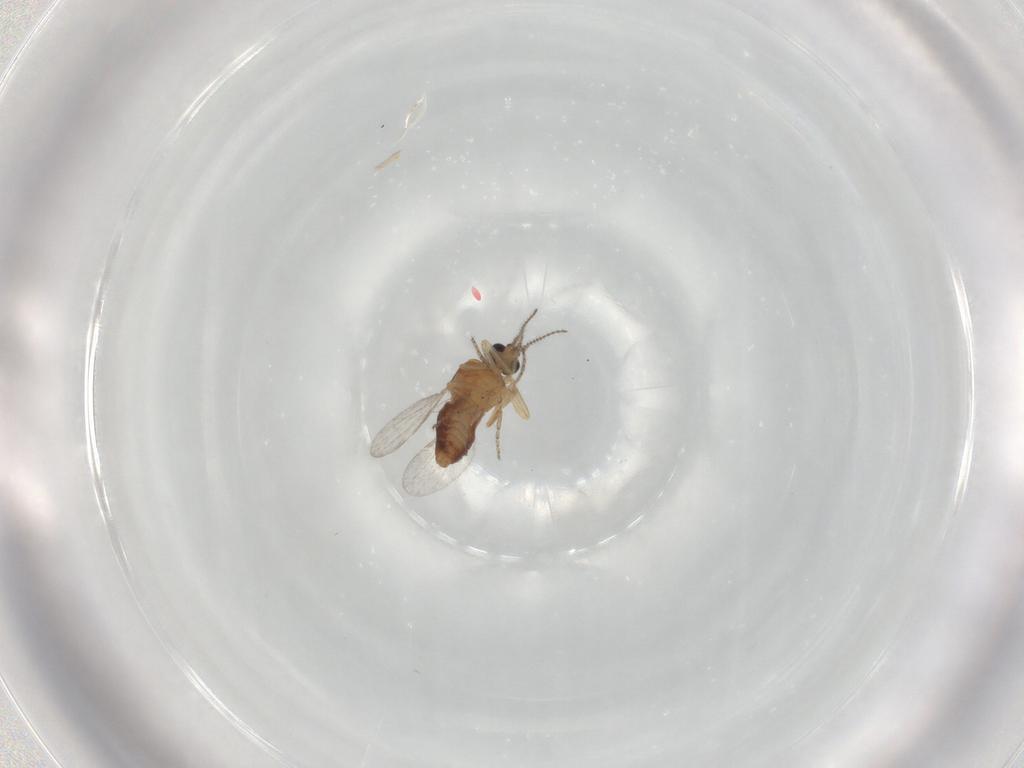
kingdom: Animalia
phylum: Arthropoda
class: Insecta
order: Diptera
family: Ceratopogonidae
